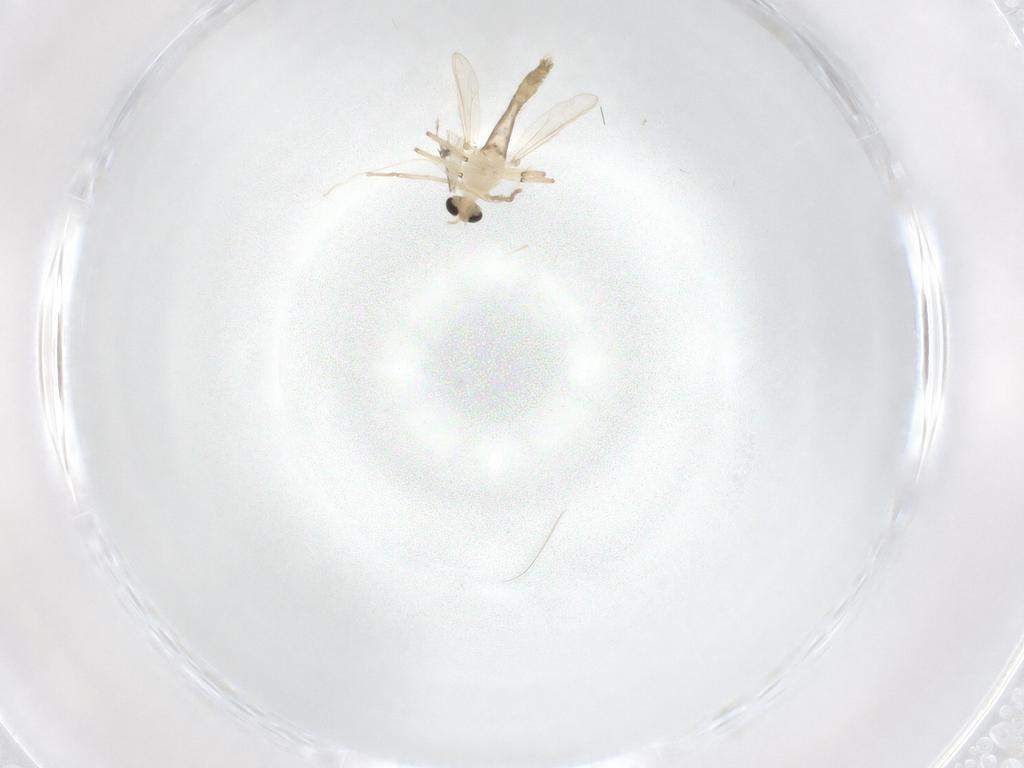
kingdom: Animalia
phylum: Arthropoda
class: Insecta
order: Diptera
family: Chironomidae
